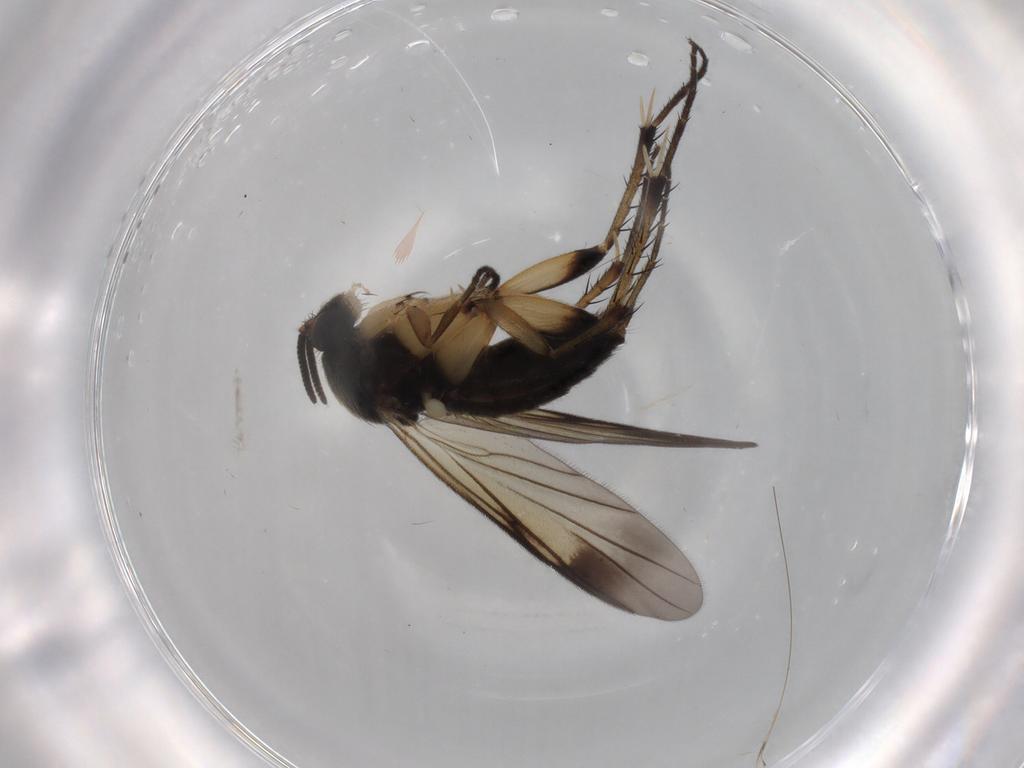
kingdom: Animalia
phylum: Arthropoda
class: Insecta
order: Diptera
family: Mycetophilidae
